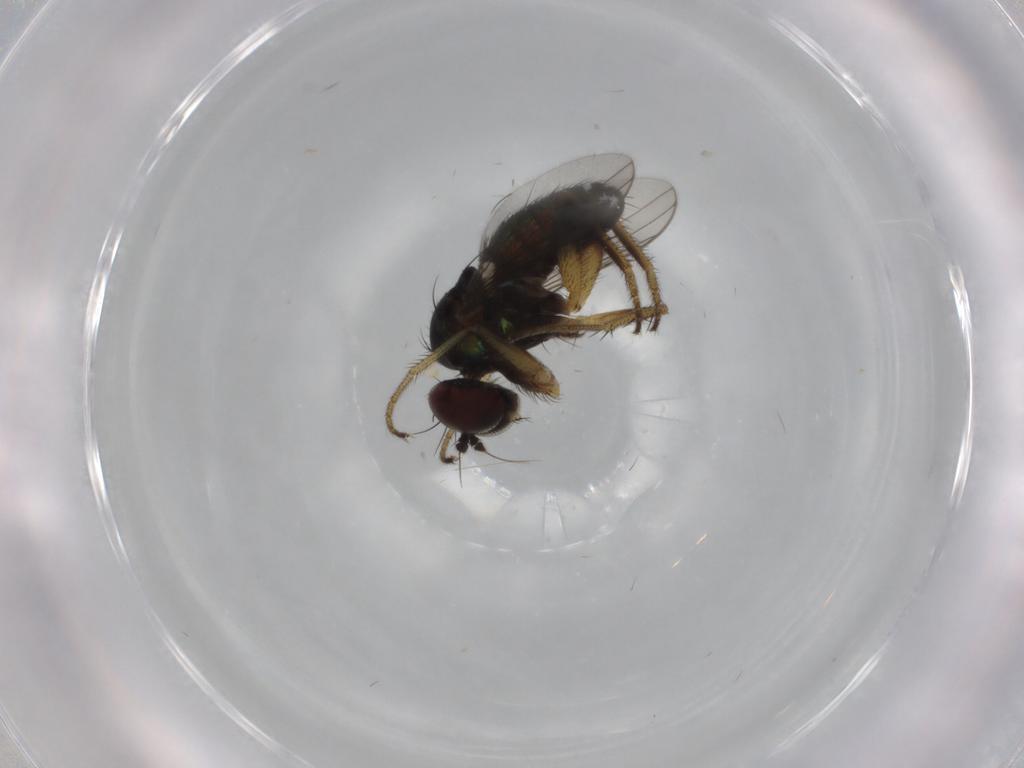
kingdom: Animalia
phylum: Arthropoda
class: Insecta
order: Diptera
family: Dolichopodidae
